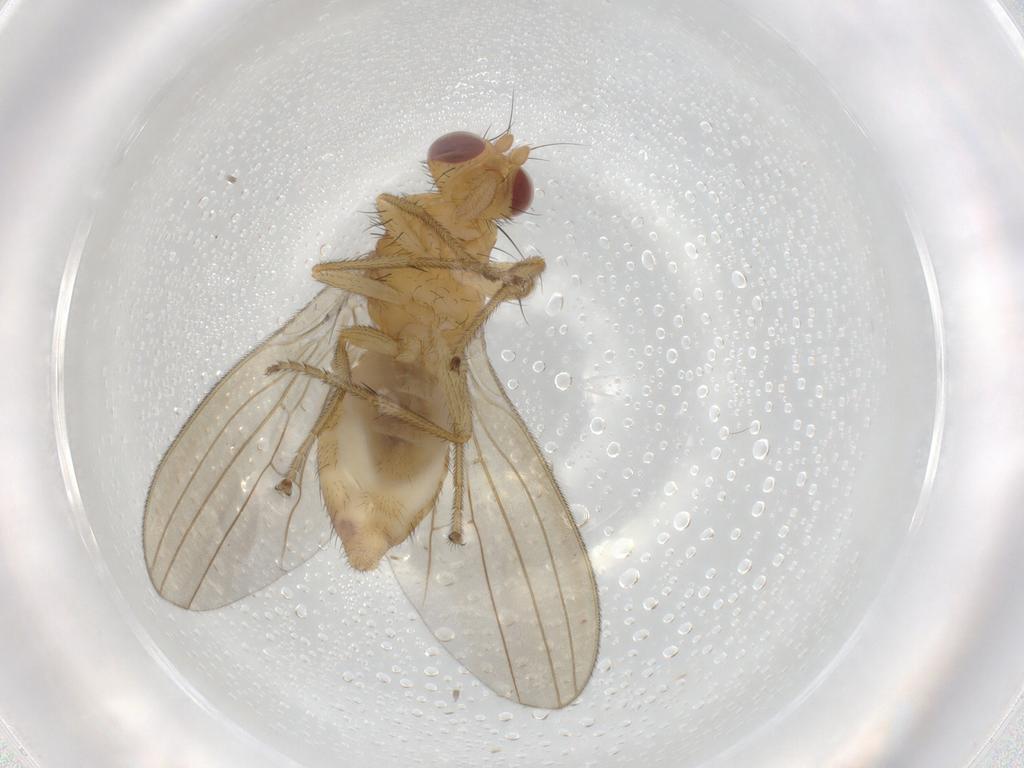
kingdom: Animalia
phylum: Arthropoda
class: Insecta
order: Diptera
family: Natalimyzidae
